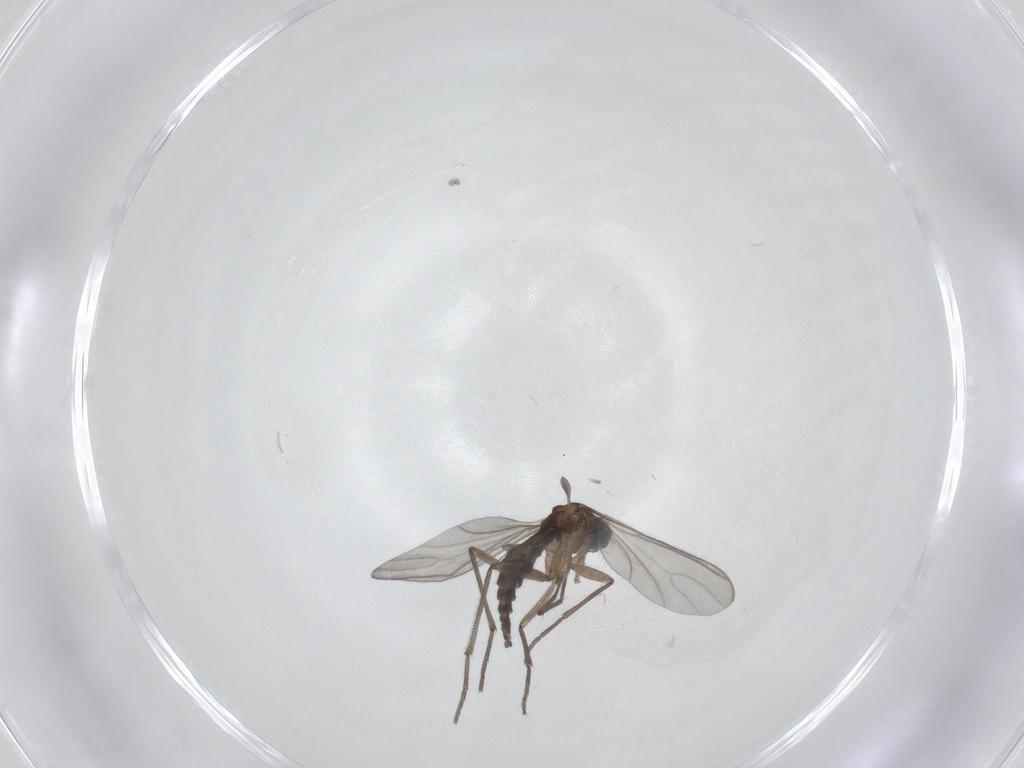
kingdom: Animalia
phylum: Arthropoda
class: Insecta
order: Diptera
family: Sciaridae
